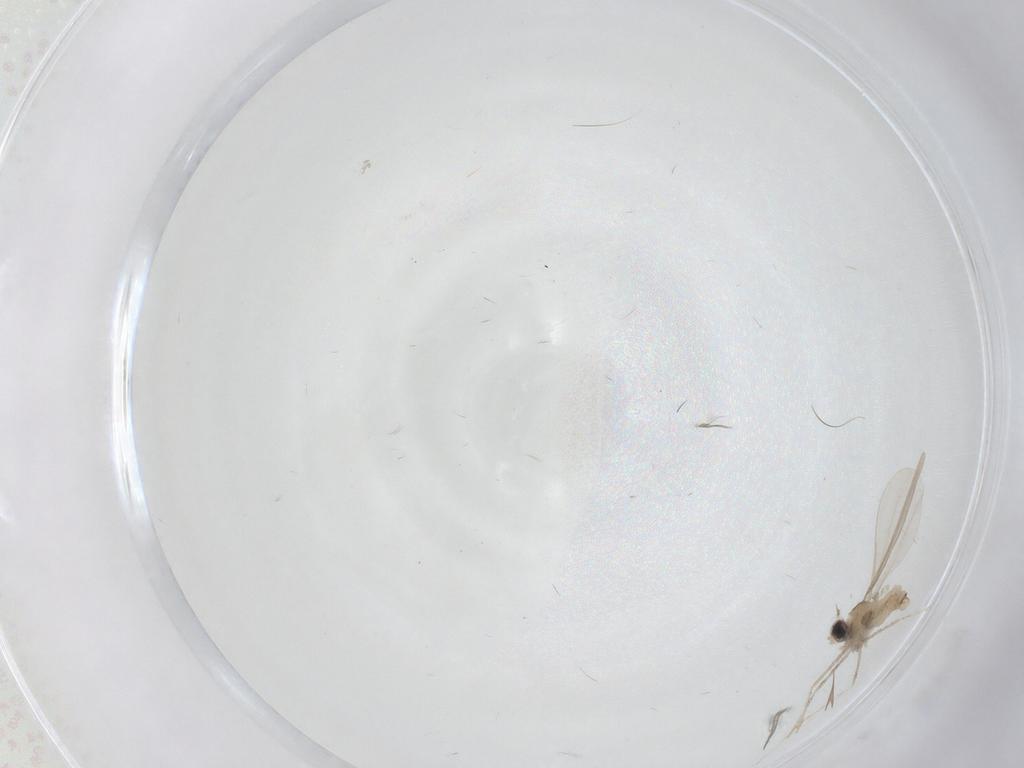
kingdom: Animalia
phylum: Arthropoda
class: Insecta
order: Diptera
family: Phoridae
